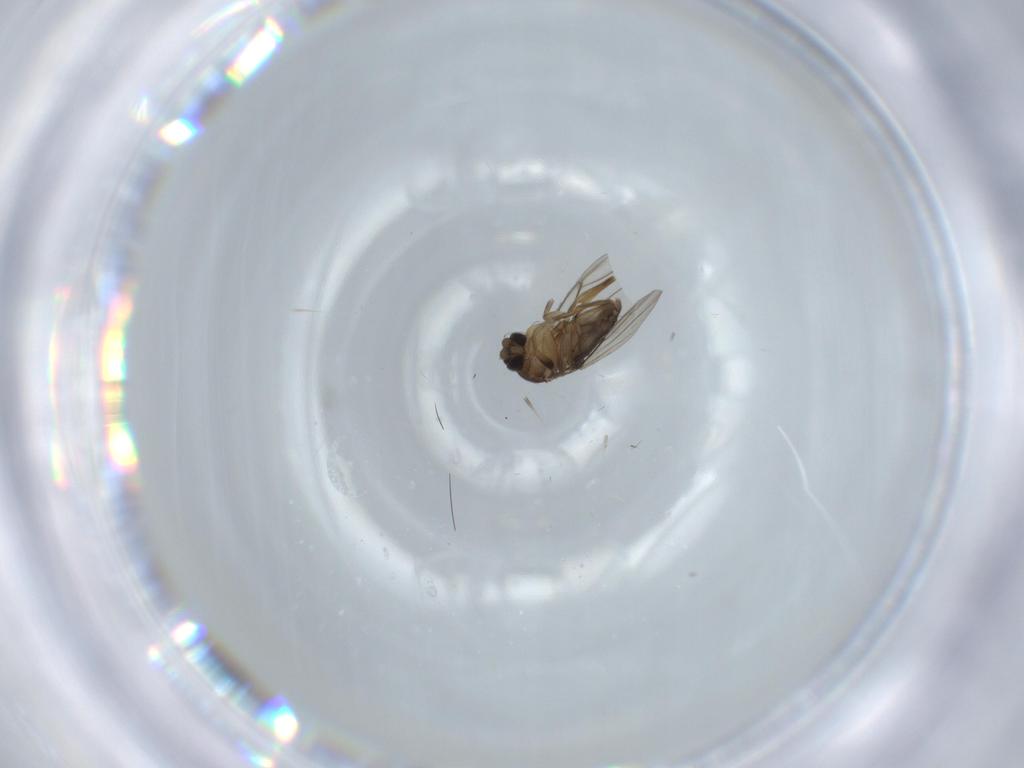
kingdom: Animalia
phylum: Arthropoda
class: Insecta
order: Diptera
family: Phoridae
